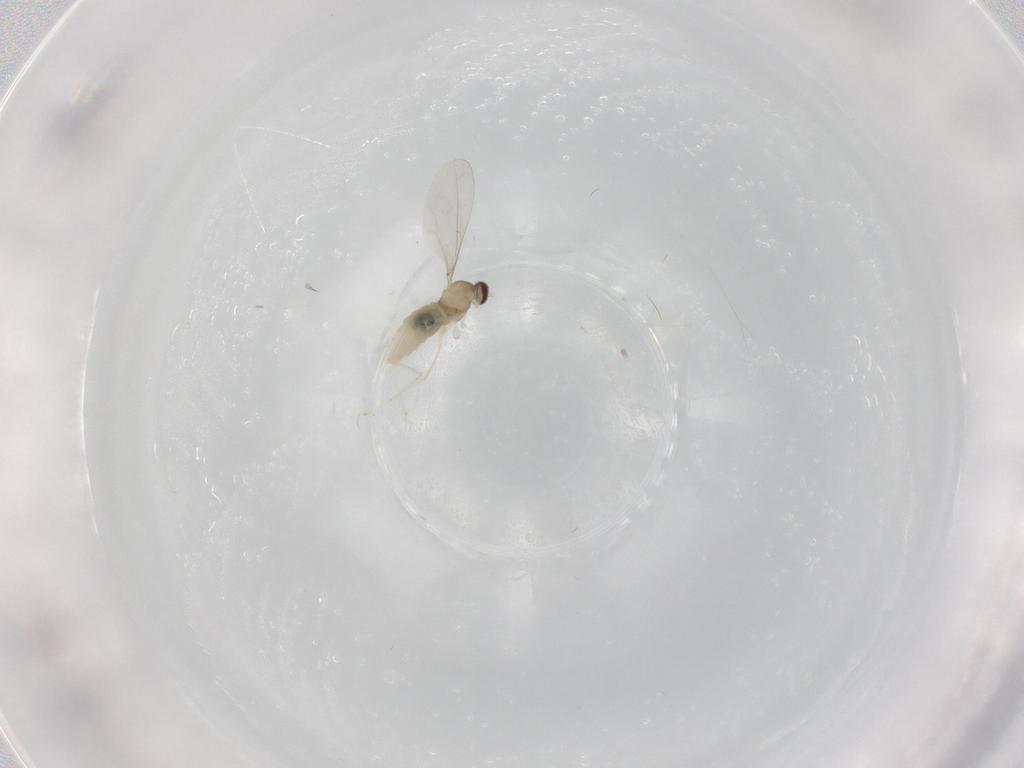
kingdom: Animalia
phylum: Arthropoda
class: Insecta
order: Diptera
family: Cecidomyiidae
